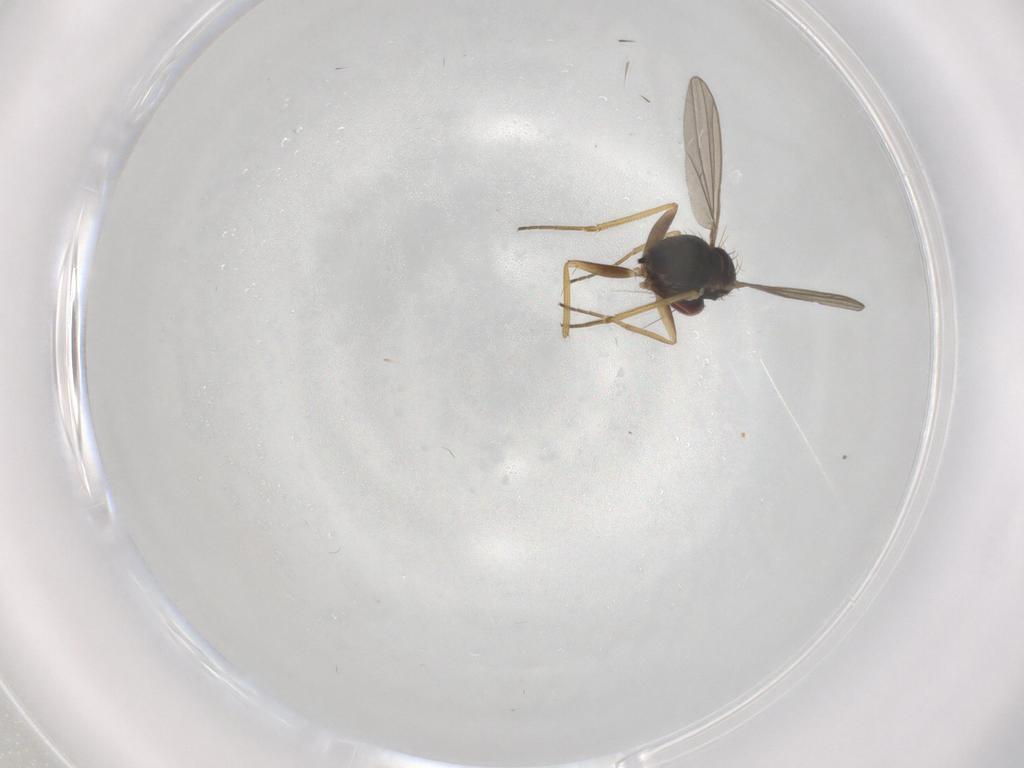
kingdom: Animalia
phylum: Arthropoda
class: Insecta
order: Diptera
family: Dolichopodidae
